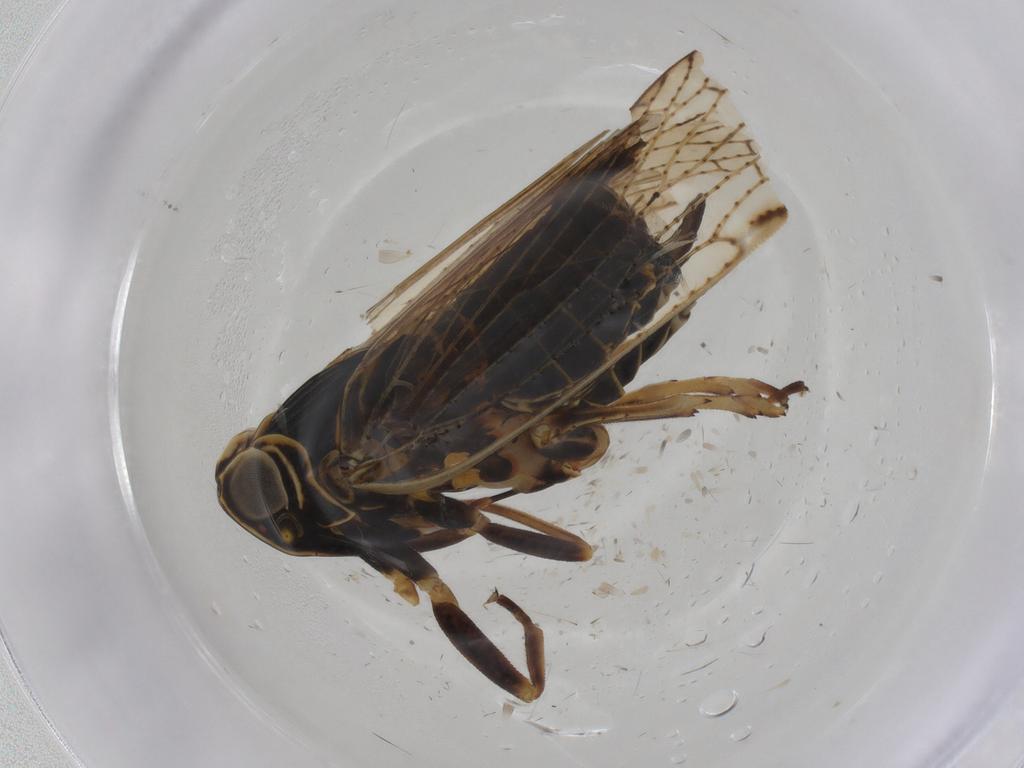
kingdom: Animalia
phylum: Arthropoda
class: Insecta
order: Hemiptera
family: Cixiidae
